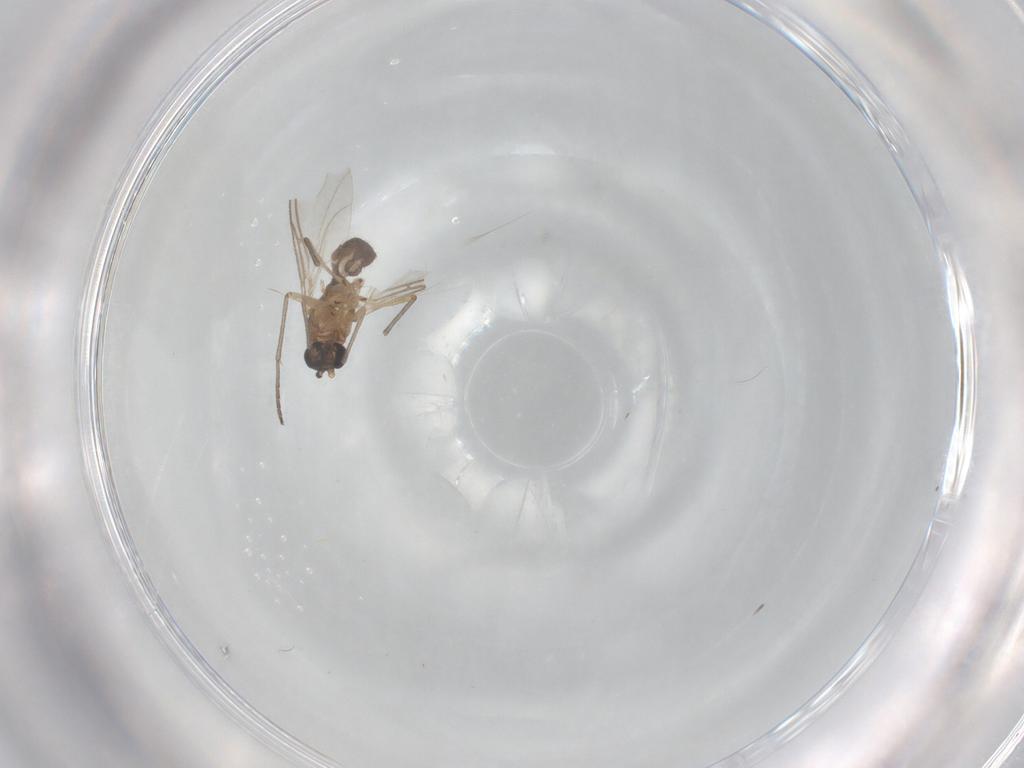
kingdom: Animalia
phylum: Arthropoda
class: Insecta
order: Diptera
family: Sciaridae
